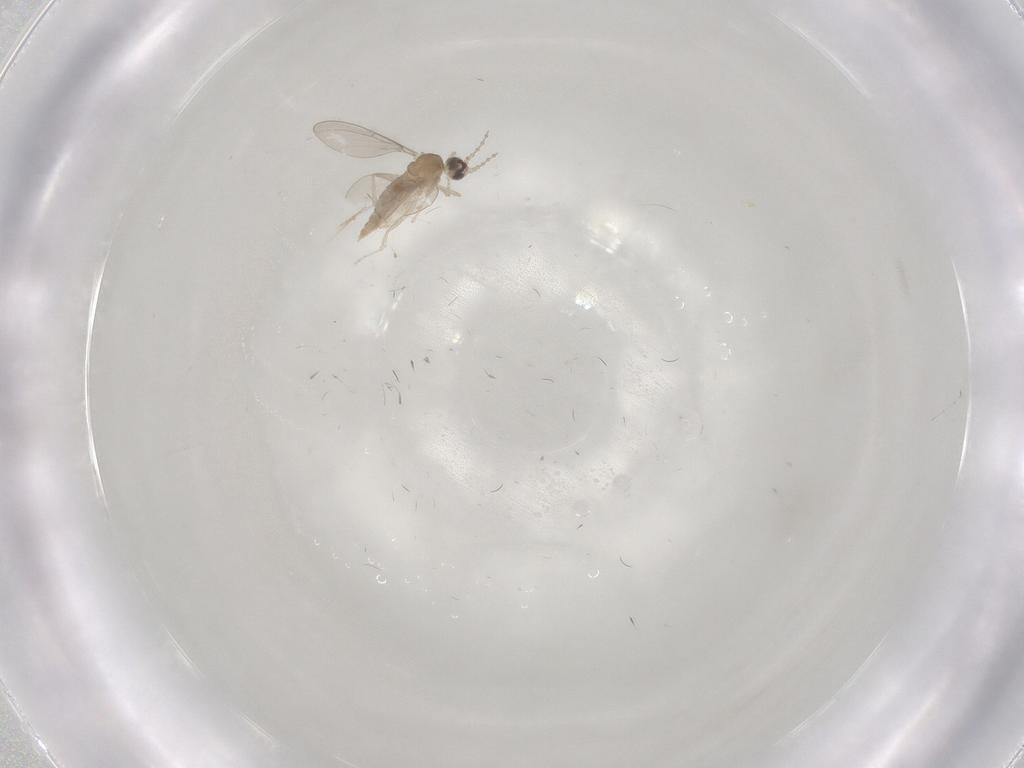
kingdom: Animalia
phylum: Arthropoda
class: Insecta
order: Diptera
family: Cecidomyiidae
